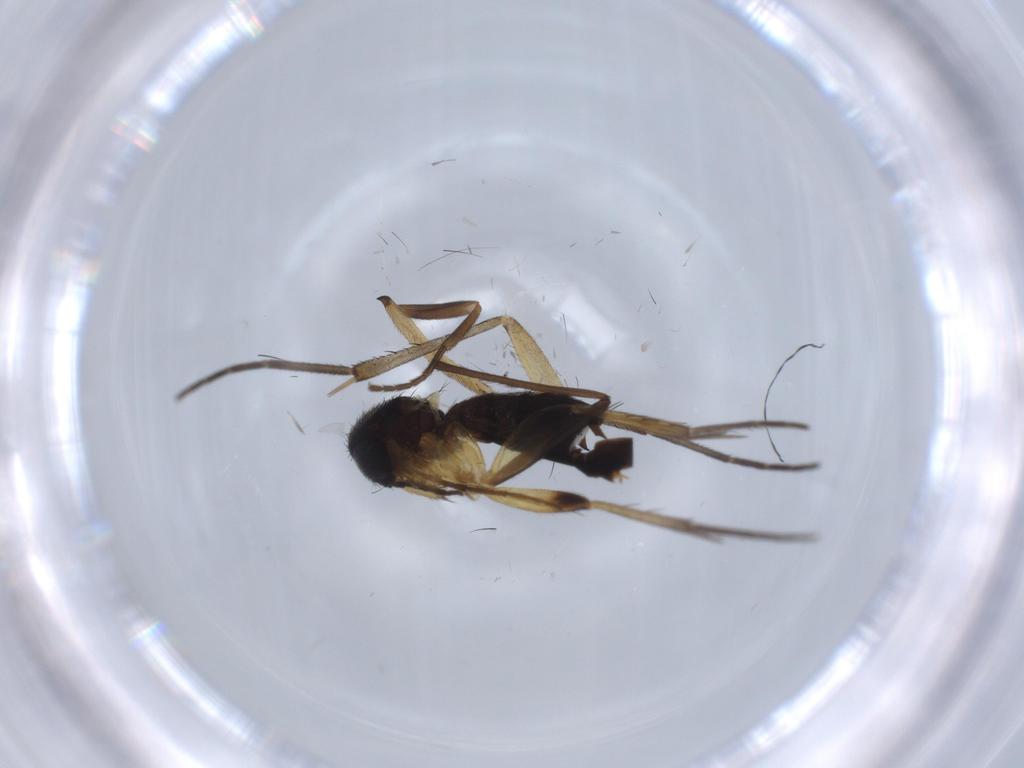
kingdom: Animalia
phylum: Arthropoda
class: Insecta
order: Diptera
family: Mycetophilidae
